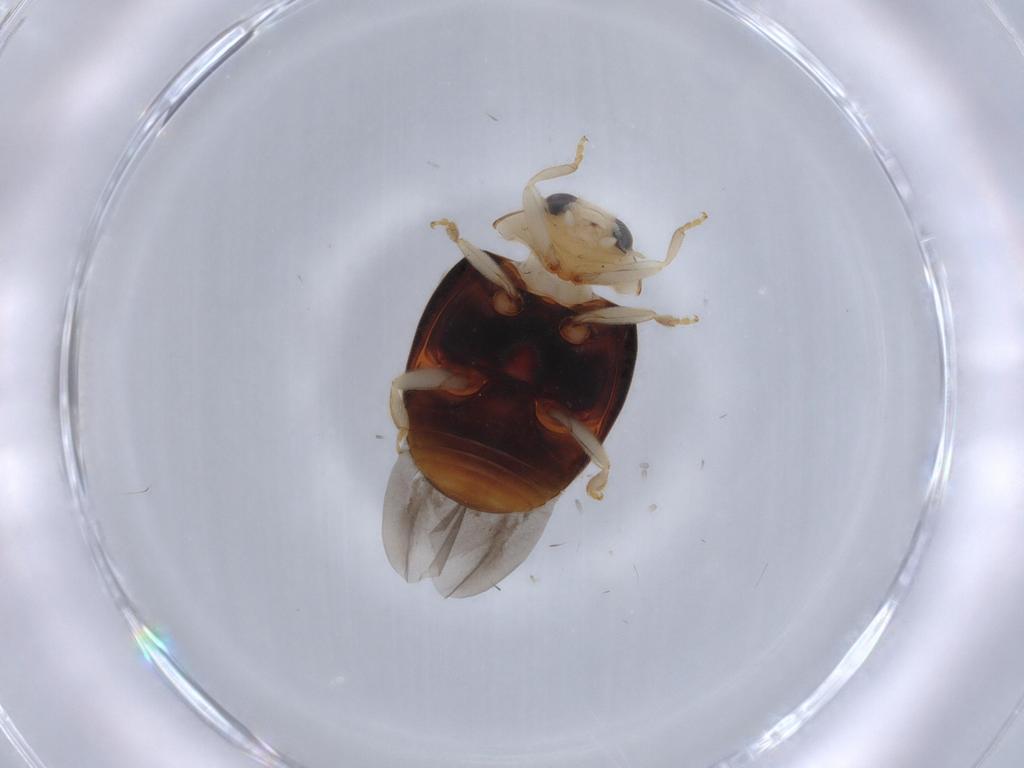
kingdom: Animalia
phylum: Arthropoda
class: Insecta
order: Coleoptera
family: Coccinellidae
